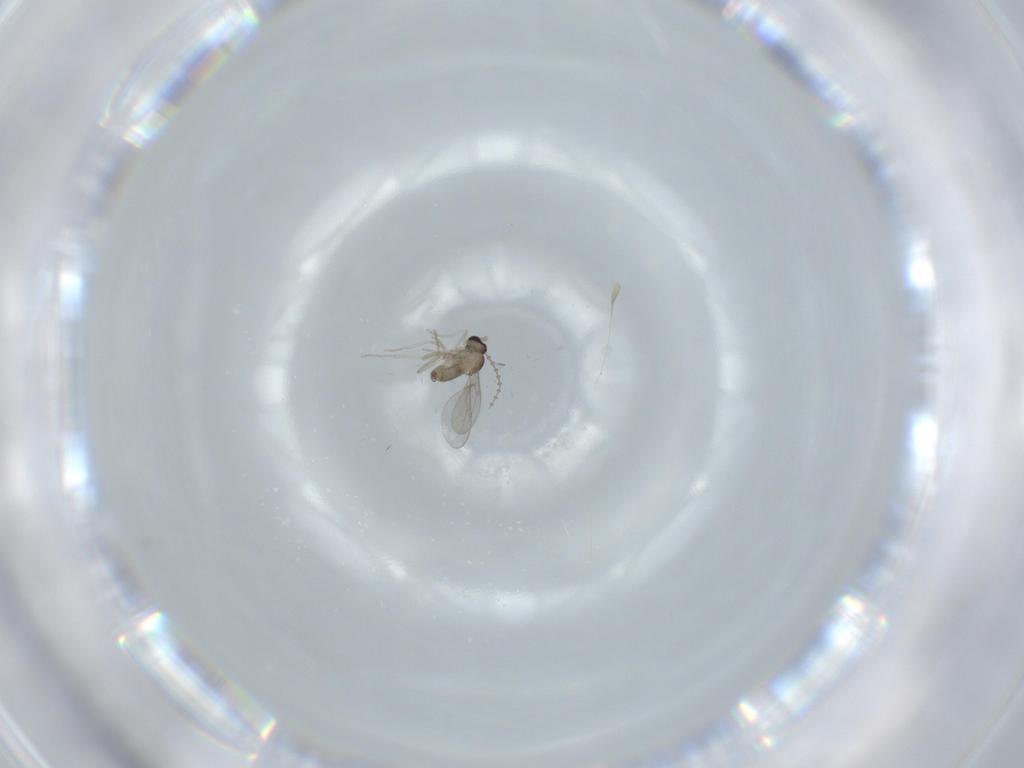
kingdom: Animalia
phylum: Arthropoda
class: Insecta
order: Diptera
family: Cecidomyiidae
